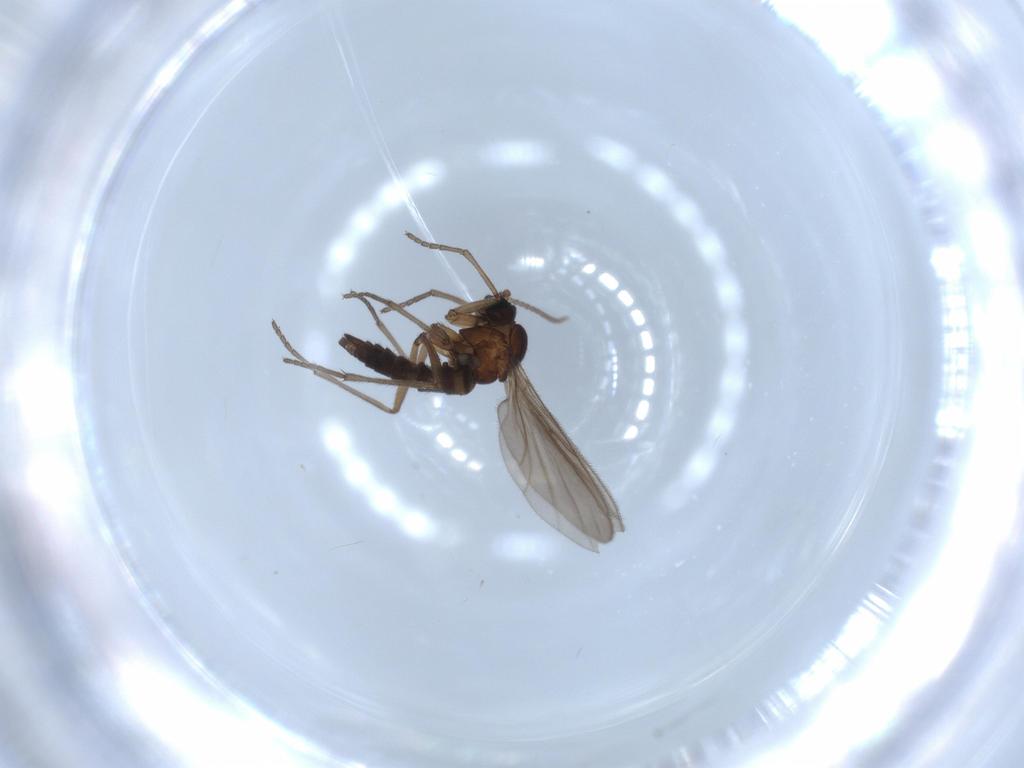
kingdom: Animalia
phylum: Arthropoda
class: Insecta
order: Diptera
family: Sciaridae
